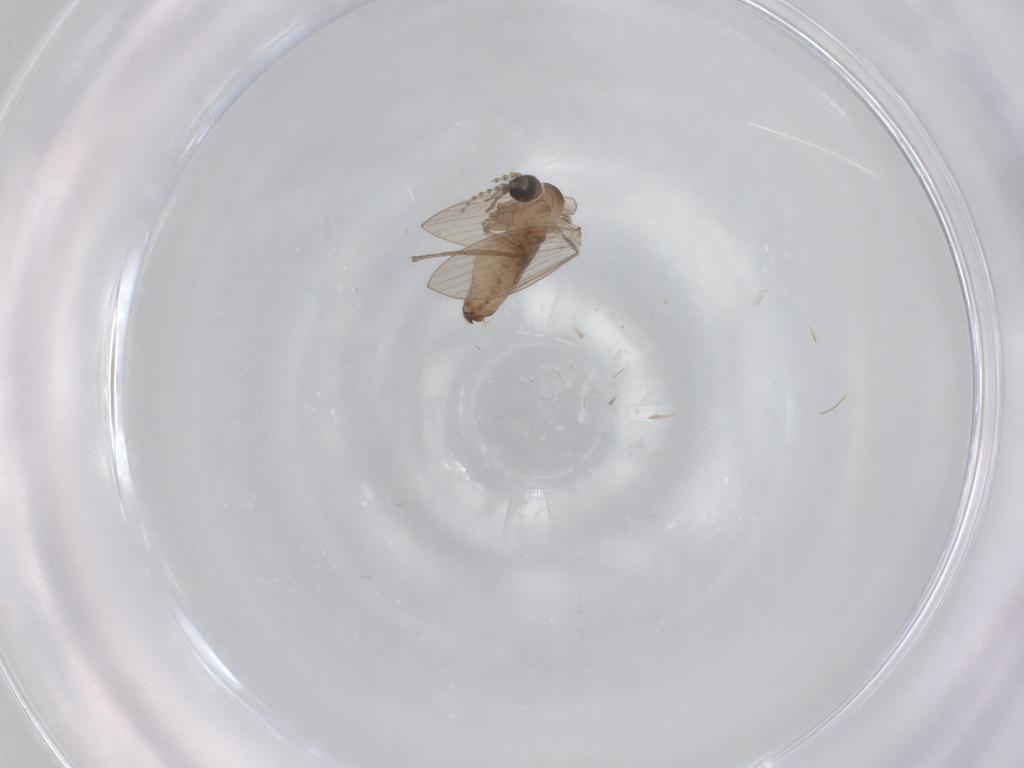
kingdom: Animalia
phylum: Arthropoda
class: Insecta
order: Diptera
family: Psychodidae
